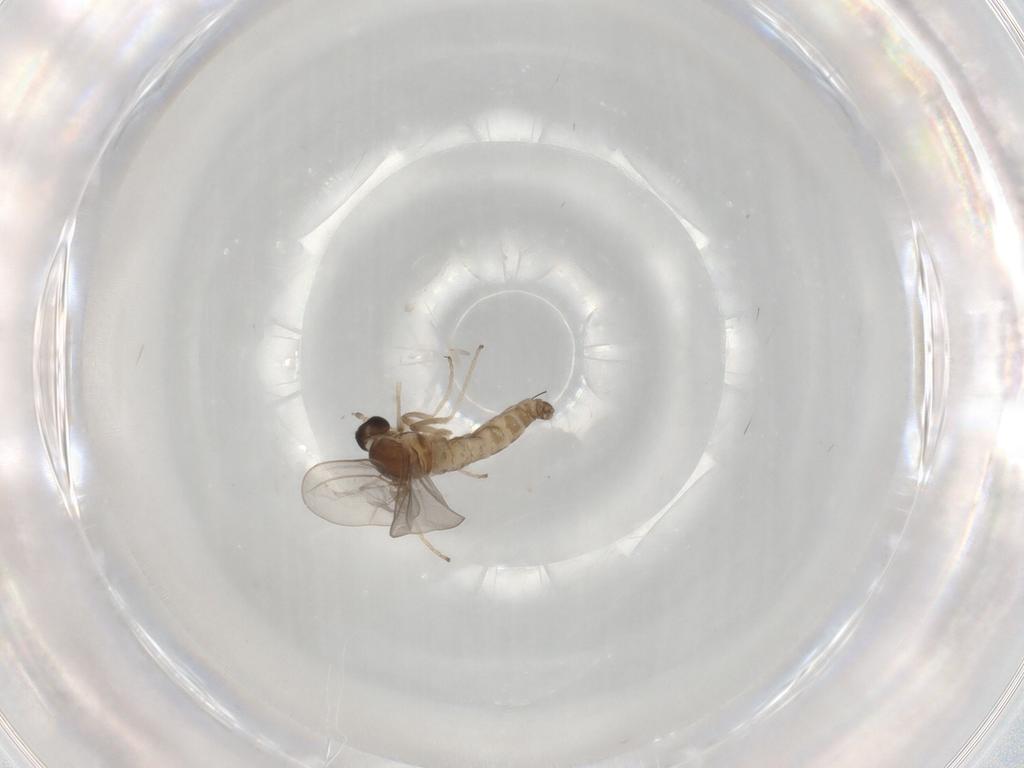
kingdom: Animalia
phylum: Arthropoda
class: Insecta
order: Diptera
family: Cecidomyiidae
